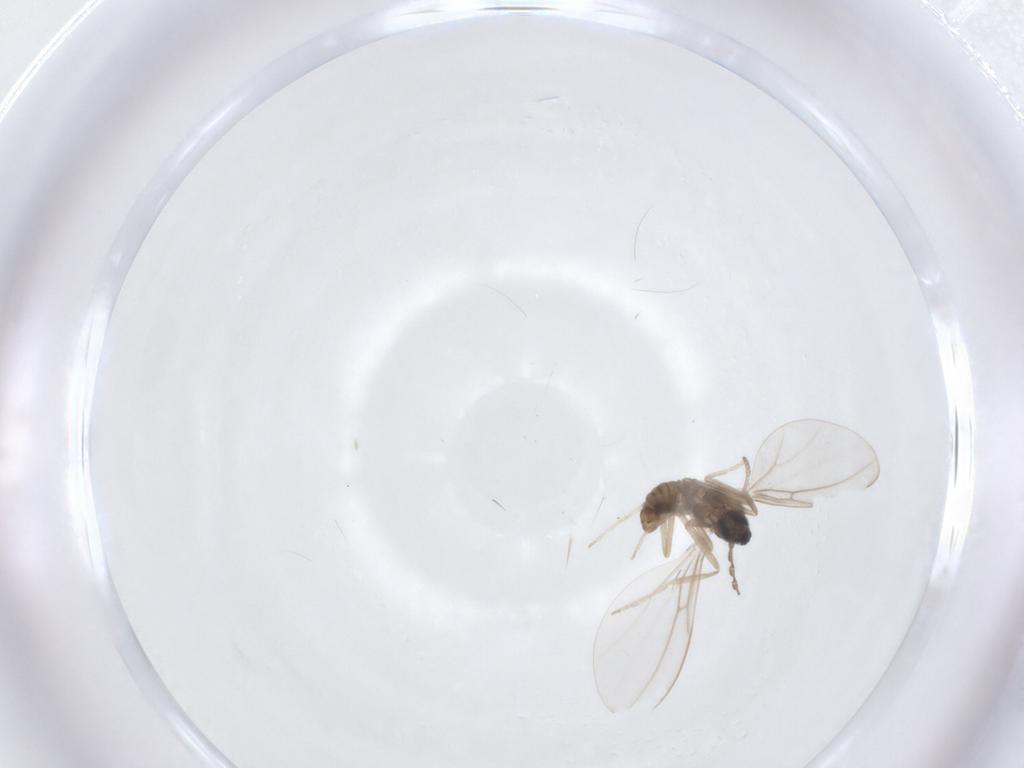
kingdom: Animalia
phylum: Arthropoda
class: Insecta
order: Diptera
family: Cecidomyiidae
